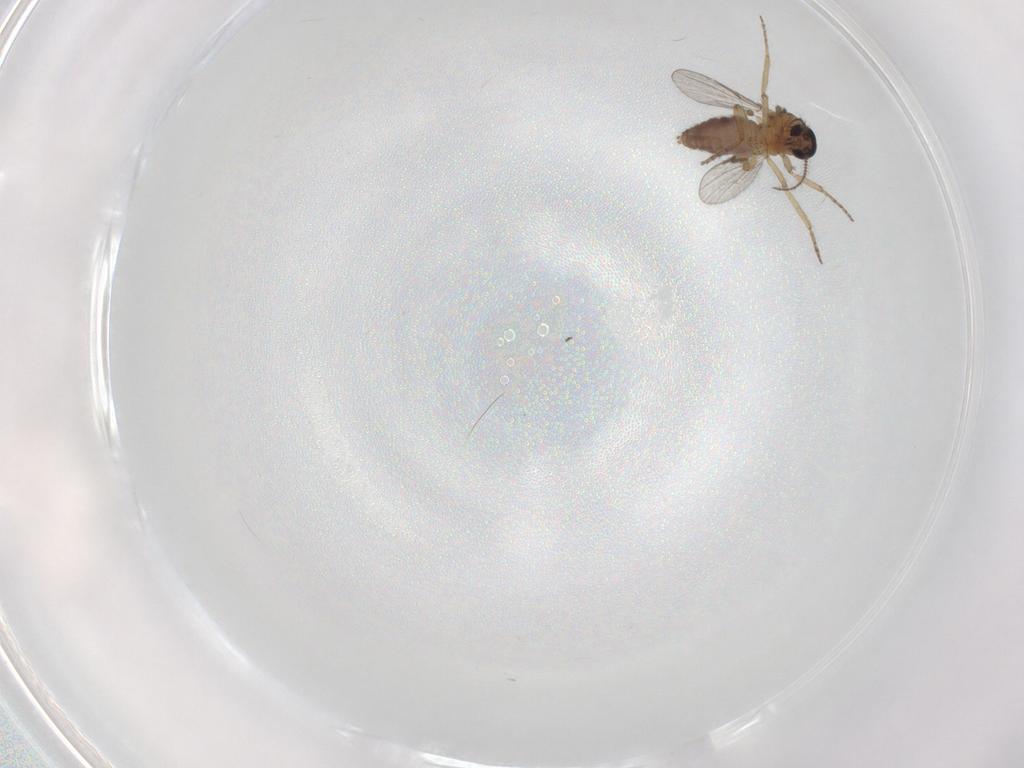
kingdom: Animalia
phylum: Arthropoda
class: Insecta
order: Diptera
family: Ceratopogonidae
